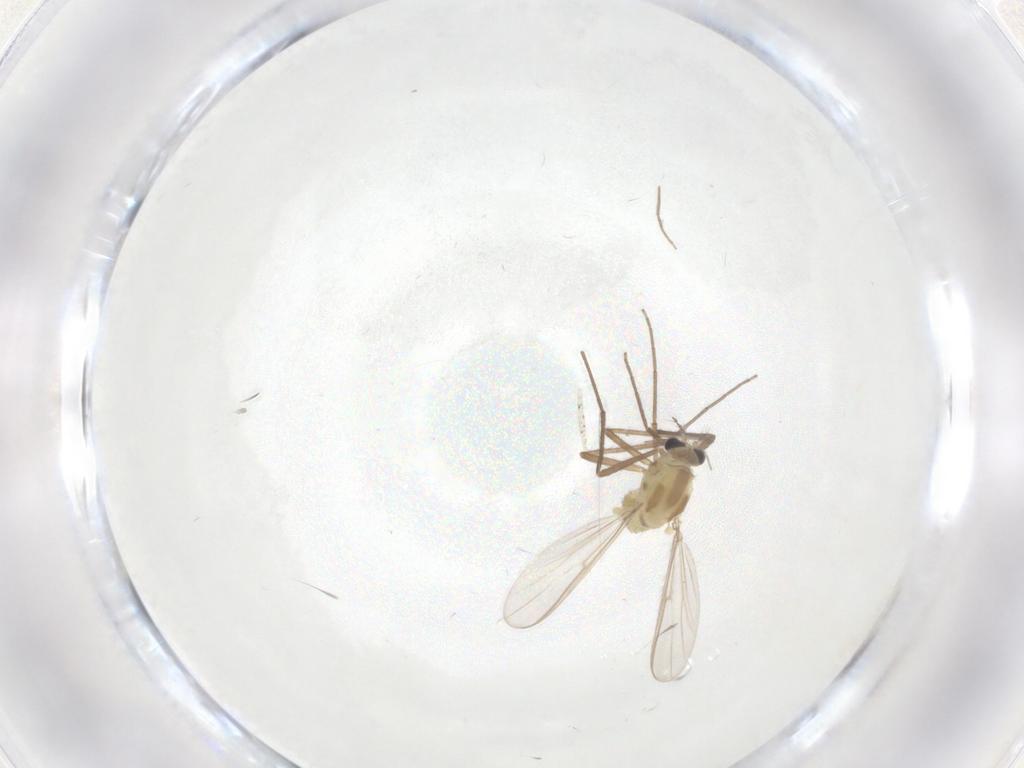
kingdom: Animalia
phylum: Arthropoda
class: Insecta
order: Diptera
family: Chironomidae
